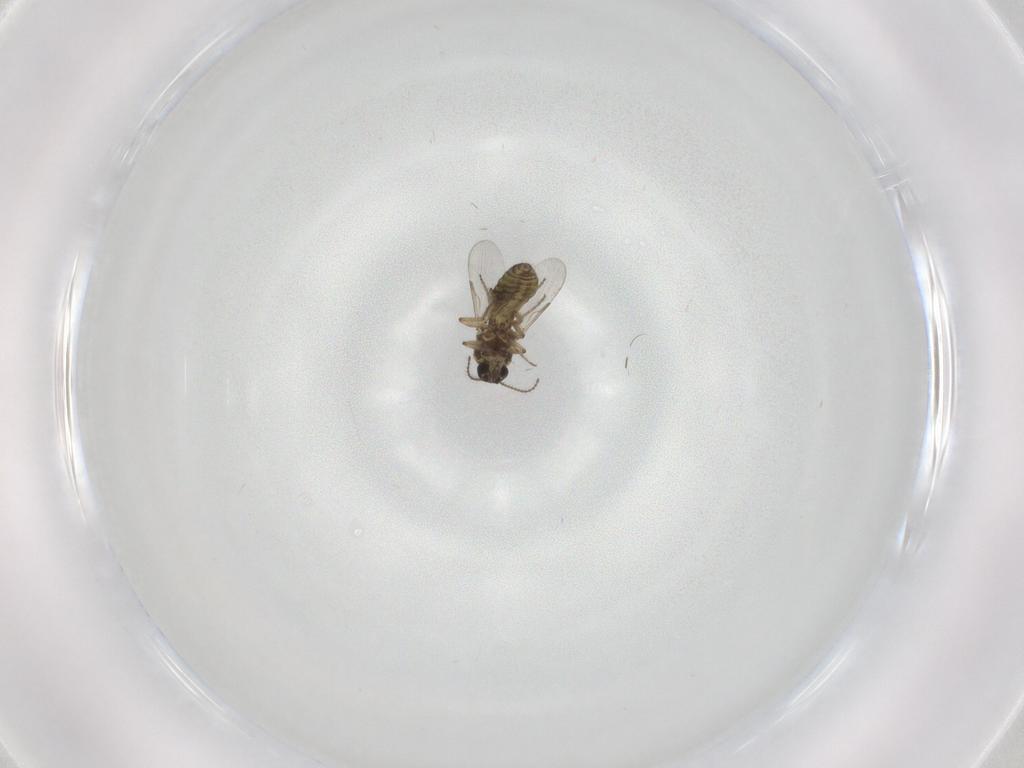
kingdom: Animalia
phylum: Arthropoda
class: Insecta
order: Diptera
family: Ceratopogonidae
